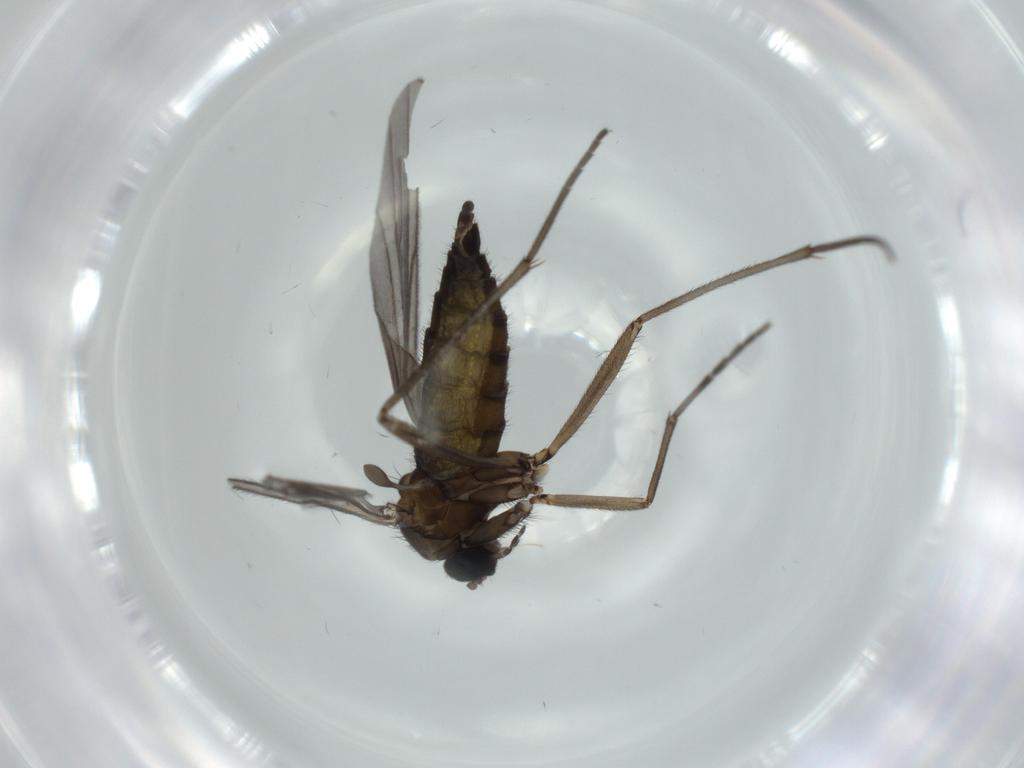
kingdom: Animalia
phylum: Arthropoda
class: Insecta
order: Diptera
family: Sciaridae
